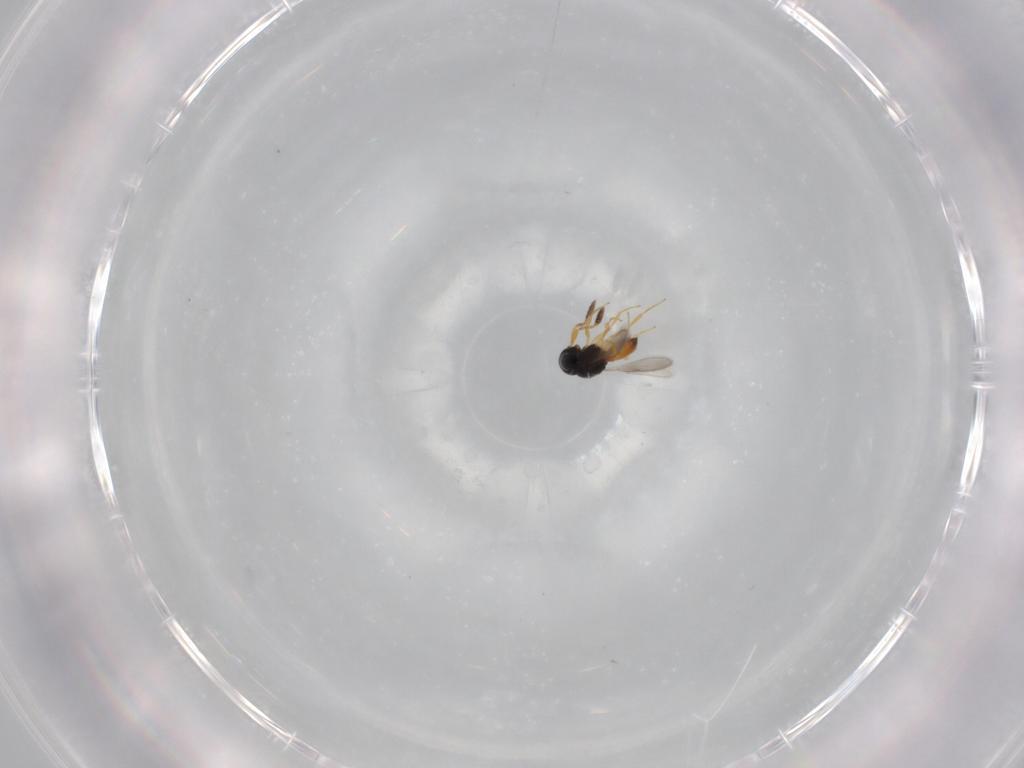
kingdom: Animalia
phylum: Arthropoda
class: Insecta
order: Hymenoptera
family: Scelionidae
